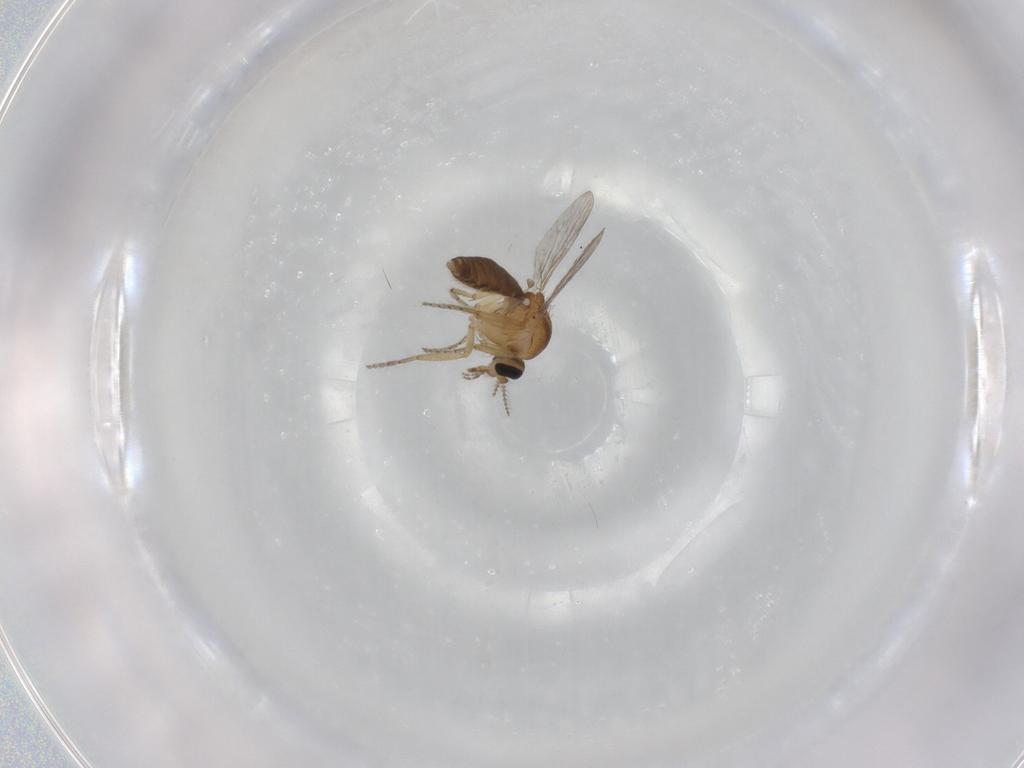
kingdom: Animalia
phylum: Arthropoda
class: Insecta
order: Diptera
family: Ceratopogonidae
